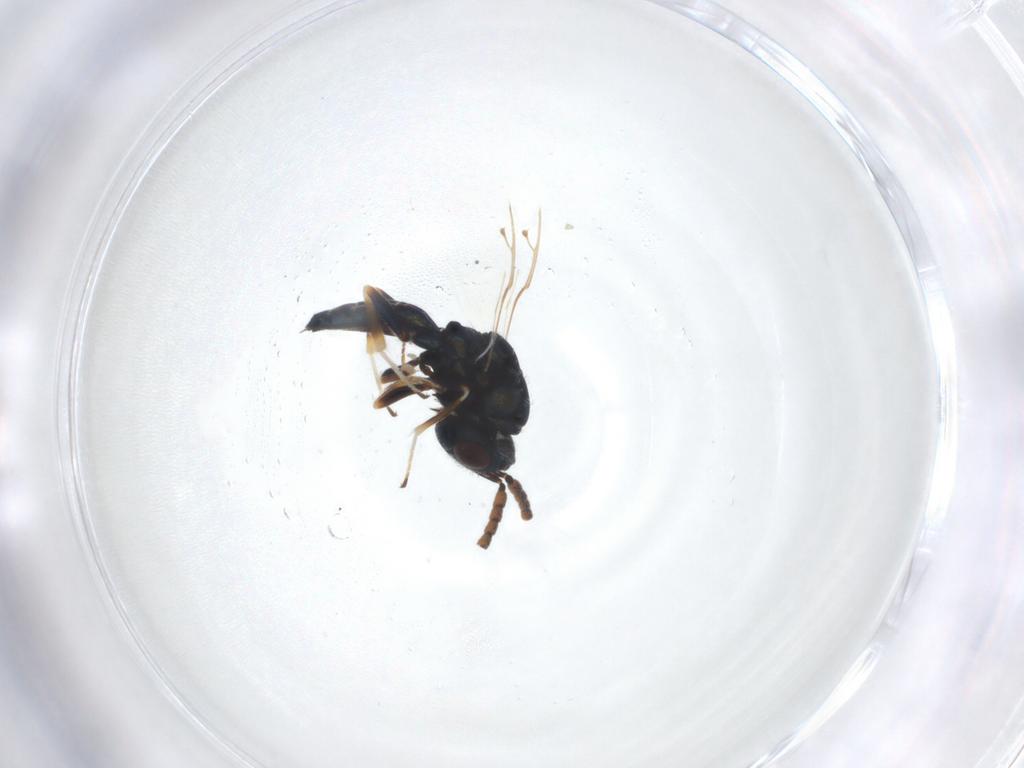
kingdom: Animalia
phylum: Arthropoda
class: Insecta
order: Hymenoptera
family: Pteromalidae
